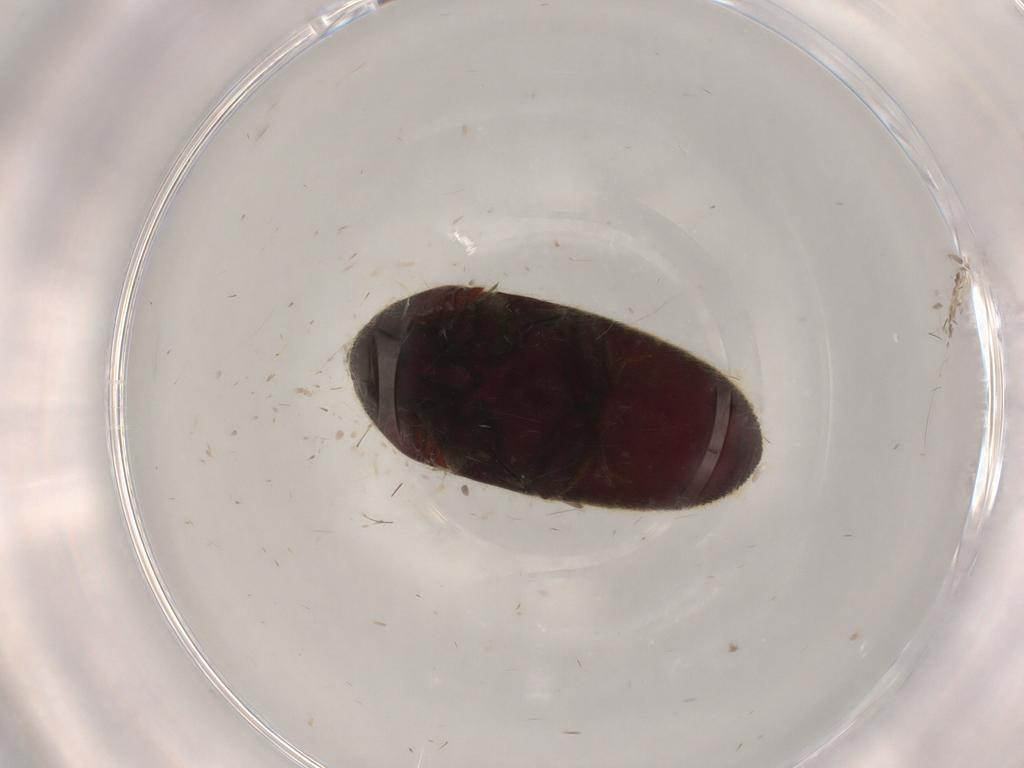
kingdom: Animalia
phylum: Arthropoda
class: Insecta
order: Coleoptera
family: Throscidae
